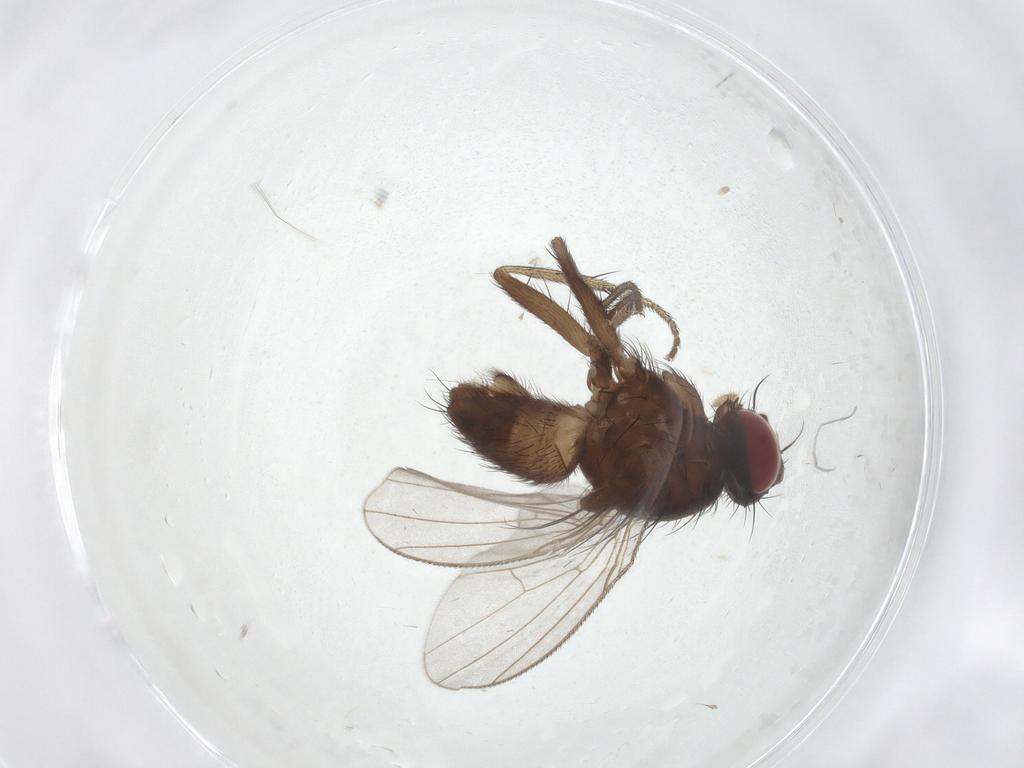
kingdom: Animalia
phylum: Arthropoda
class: Insecta
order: Diptera
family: Muscidae
